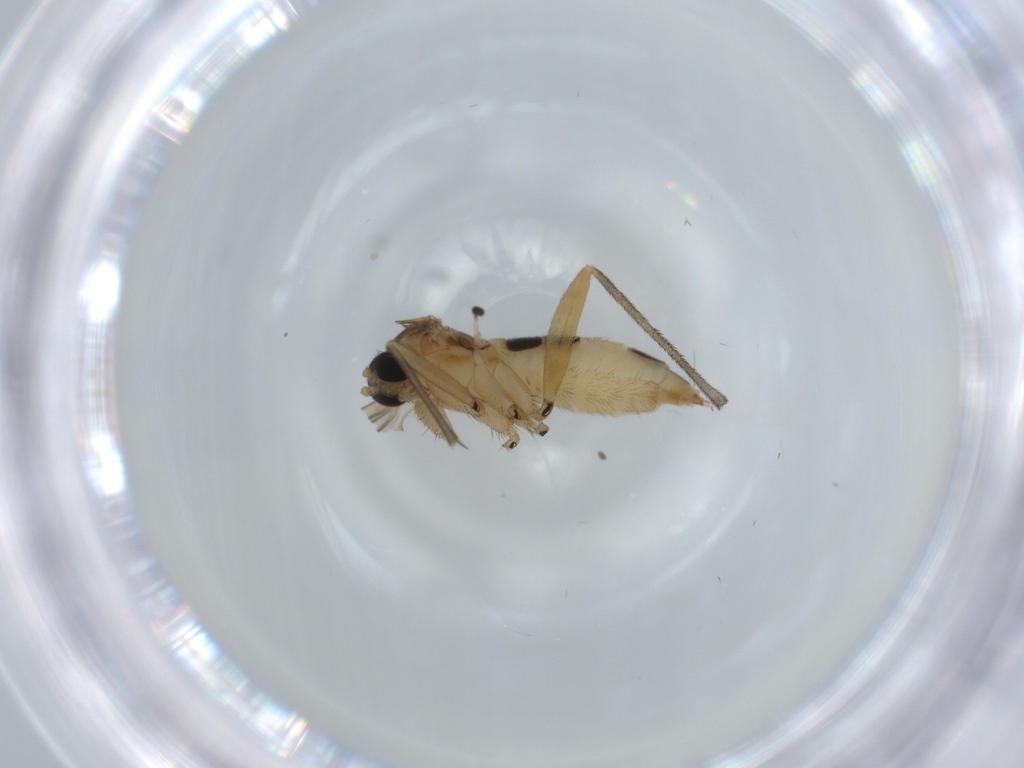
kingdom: Animalia
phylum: Arthropoda
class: Insecta
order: Diptera
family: Sciaridae
